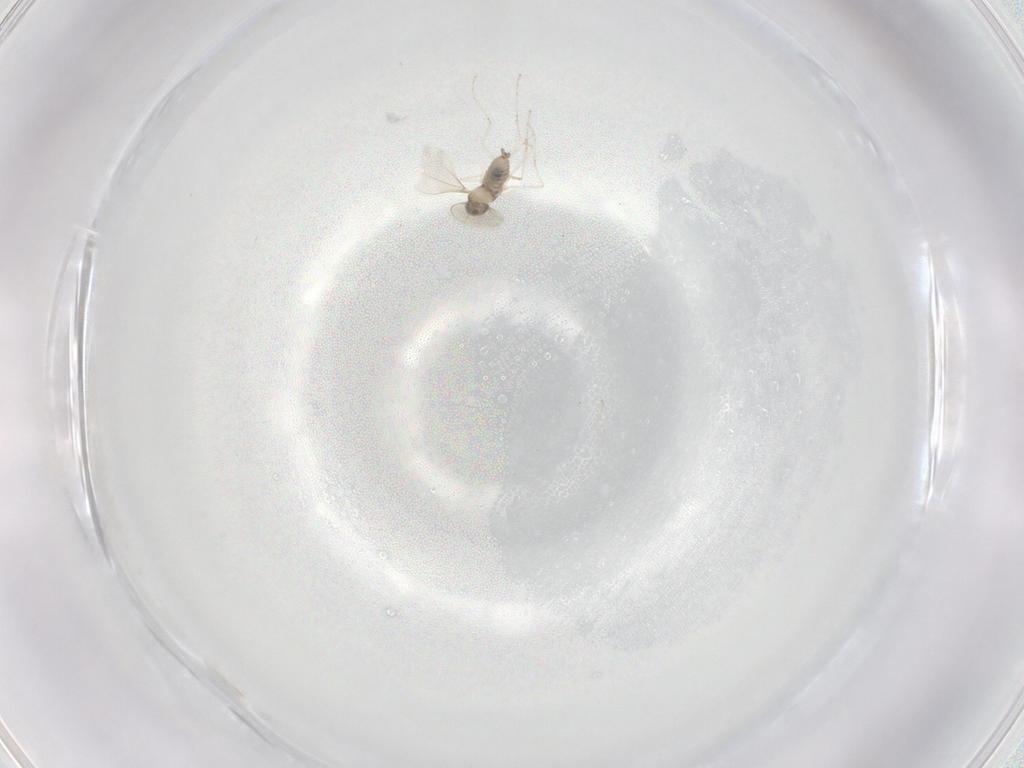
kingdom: Animalia
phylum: Arthropoda
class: Insecta
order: Diptera
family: Cecidomyiidae
